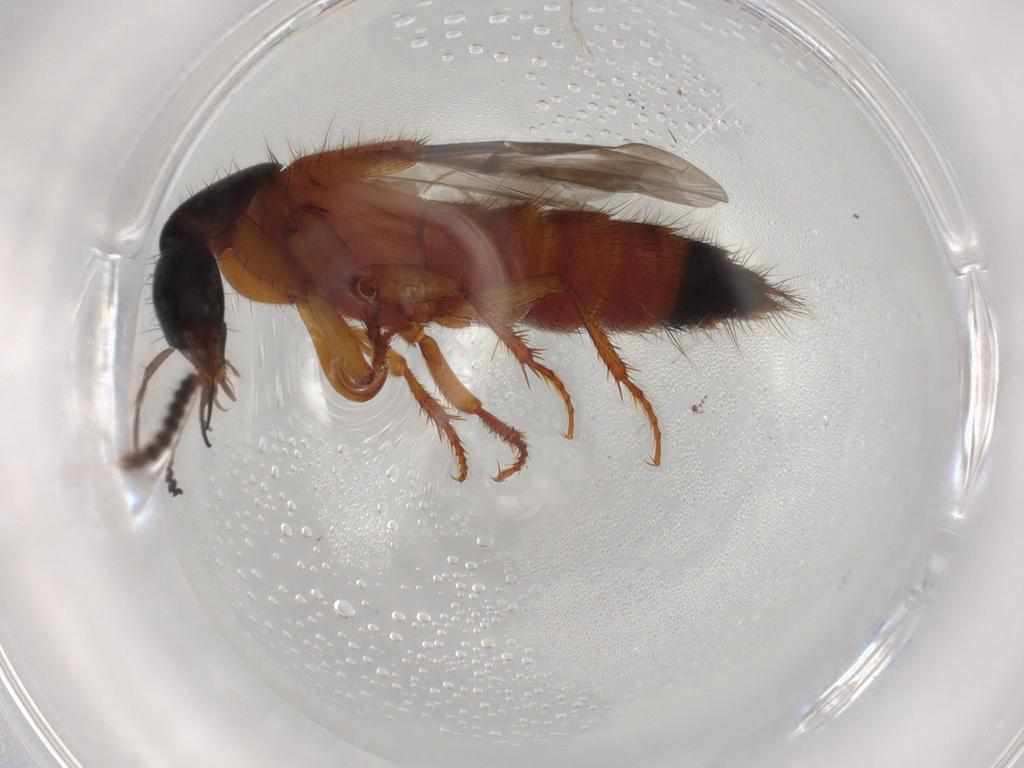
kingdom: Animalia
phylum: Arthropoda
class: Insecta
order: Coleoptera
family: Staphylinidae
